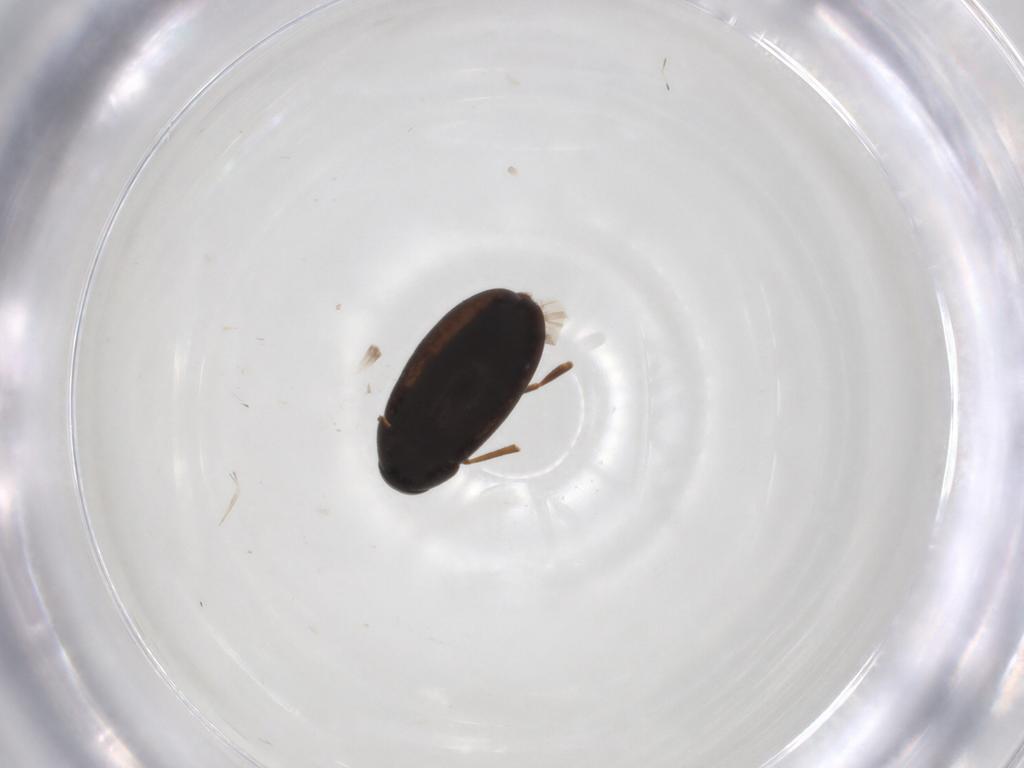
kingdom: Animalia
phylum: Arthropoda
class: Insecta
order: Coleoptera
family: Scraptiidae
